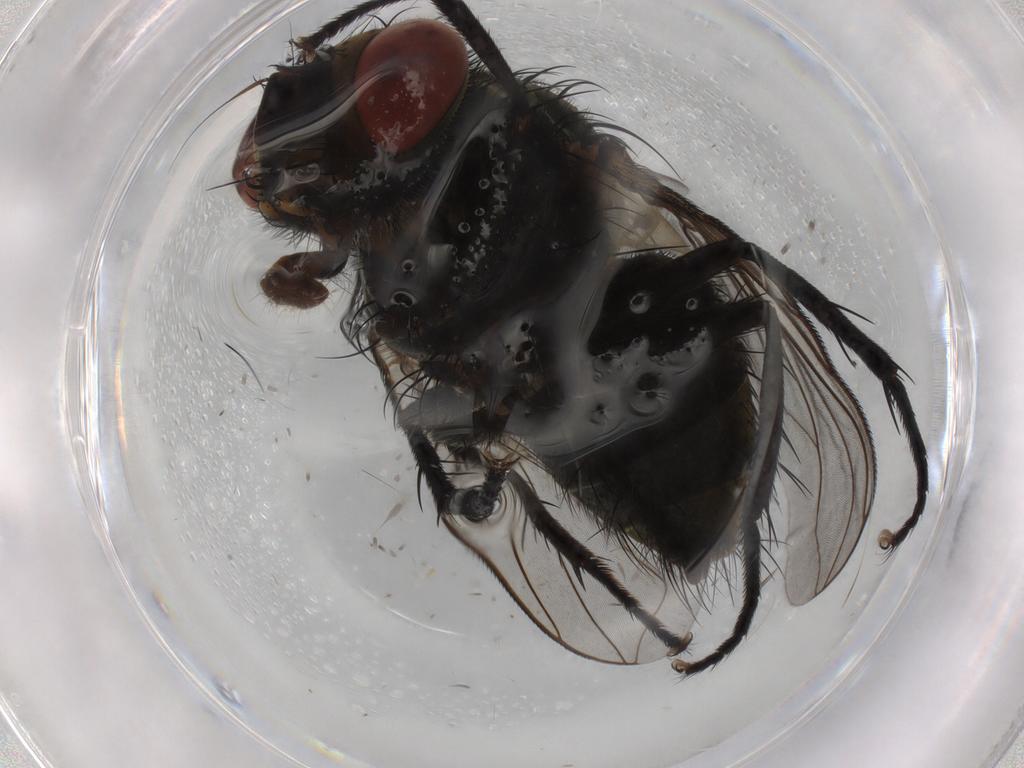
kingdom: Animalia
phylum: Arthropoda
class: Insecta
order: Diptera
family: Tachinidae
